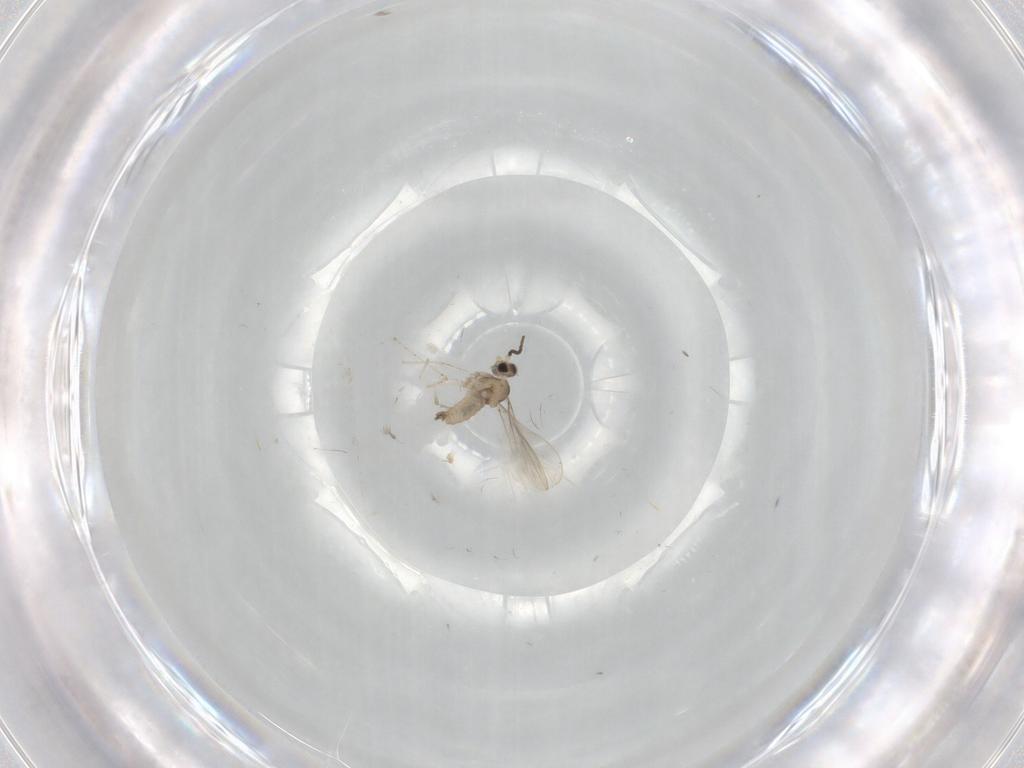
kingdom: Animalia
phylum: Arthropoda
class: Insecta
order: Diptera
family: Cecidomyiidae
